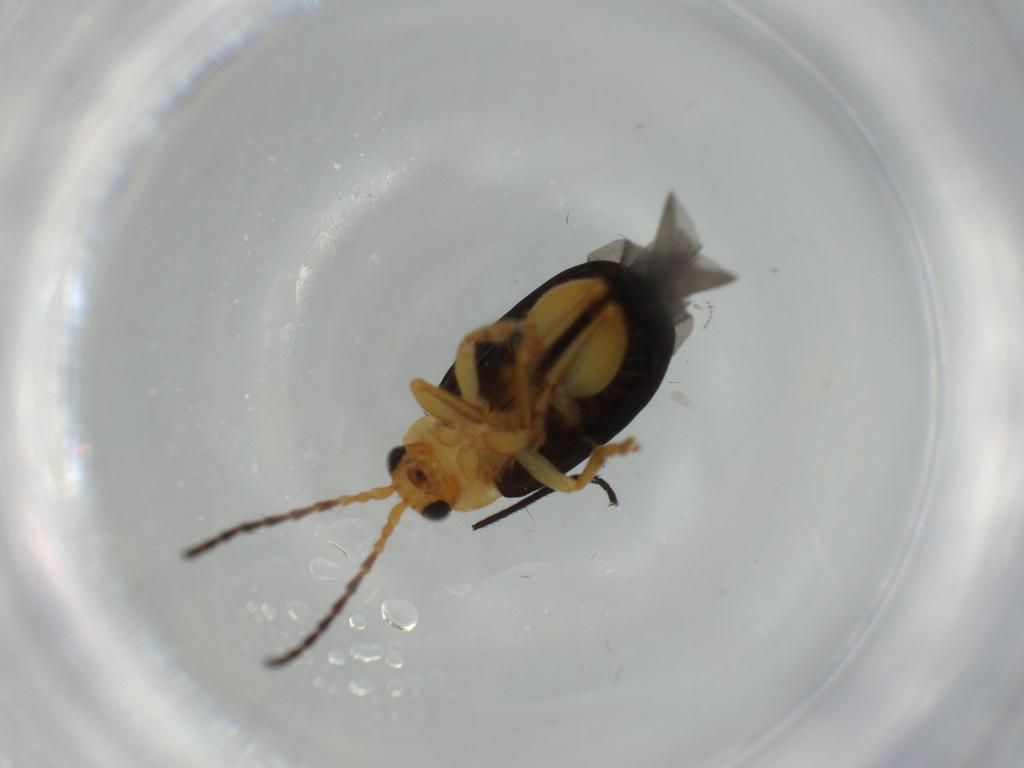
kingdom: Animalia
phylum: Arthropoda
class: Insecta
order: Coleoptera
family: Chrysomelidae
